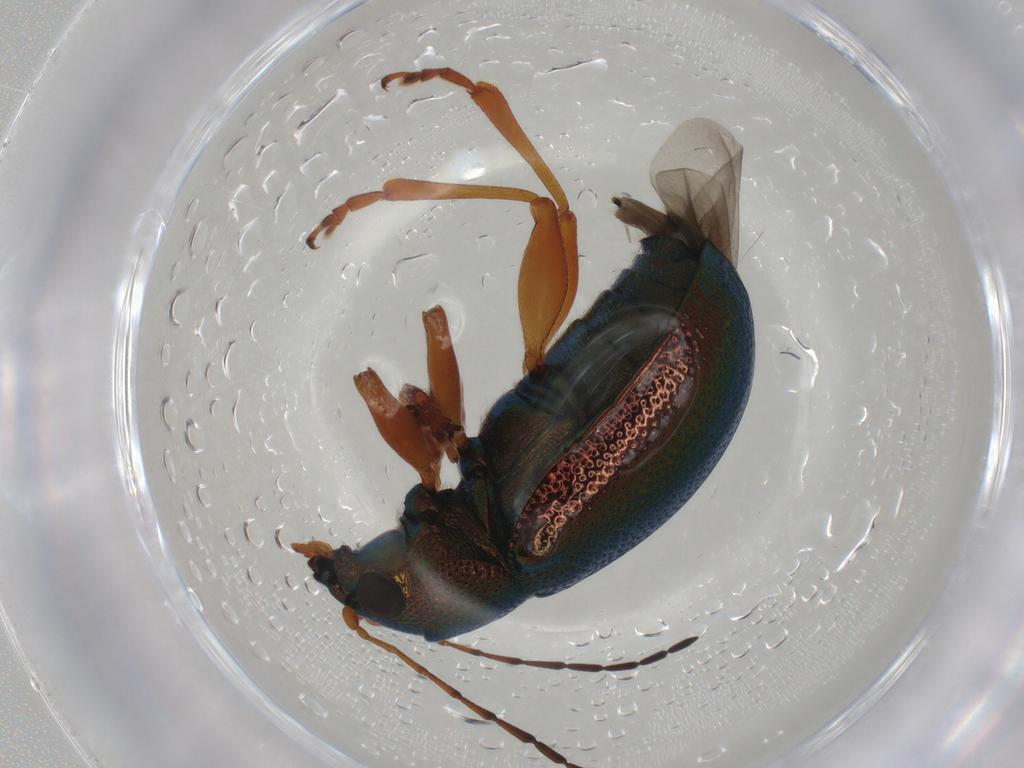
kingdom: Animalia
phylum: Arthropoda
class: Insecta
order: Coleoptera
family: Chrysomelidae
